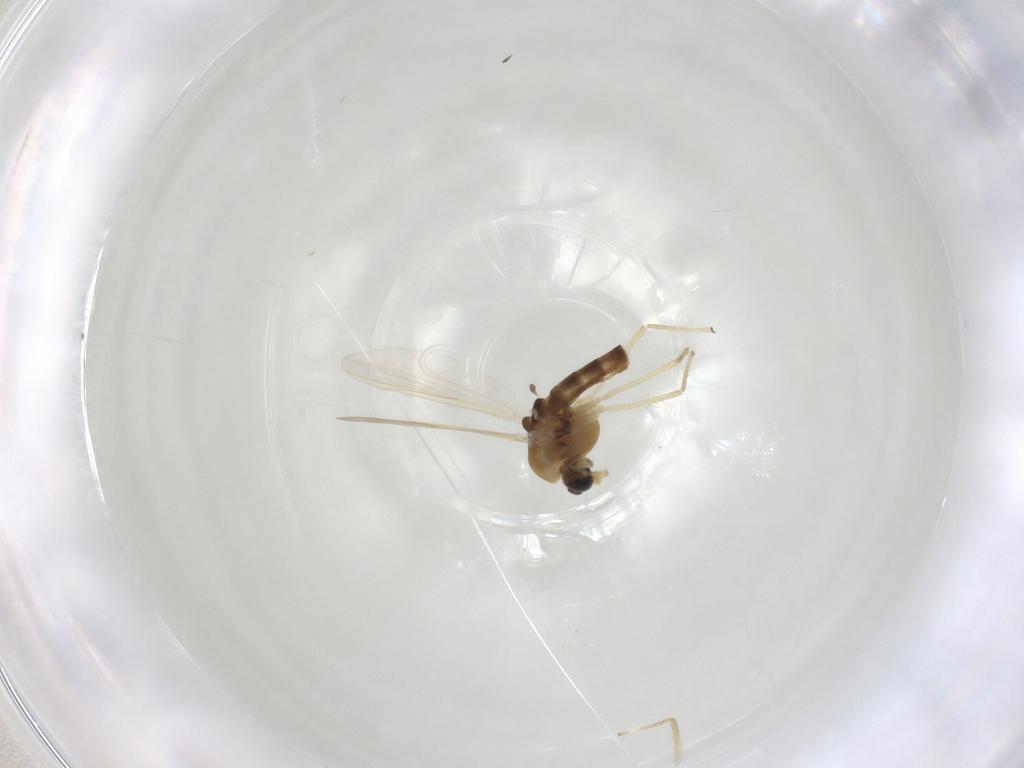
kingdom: Animalia
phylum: Arthropoda
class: Insecta
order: Diptera
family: Chironomidae
